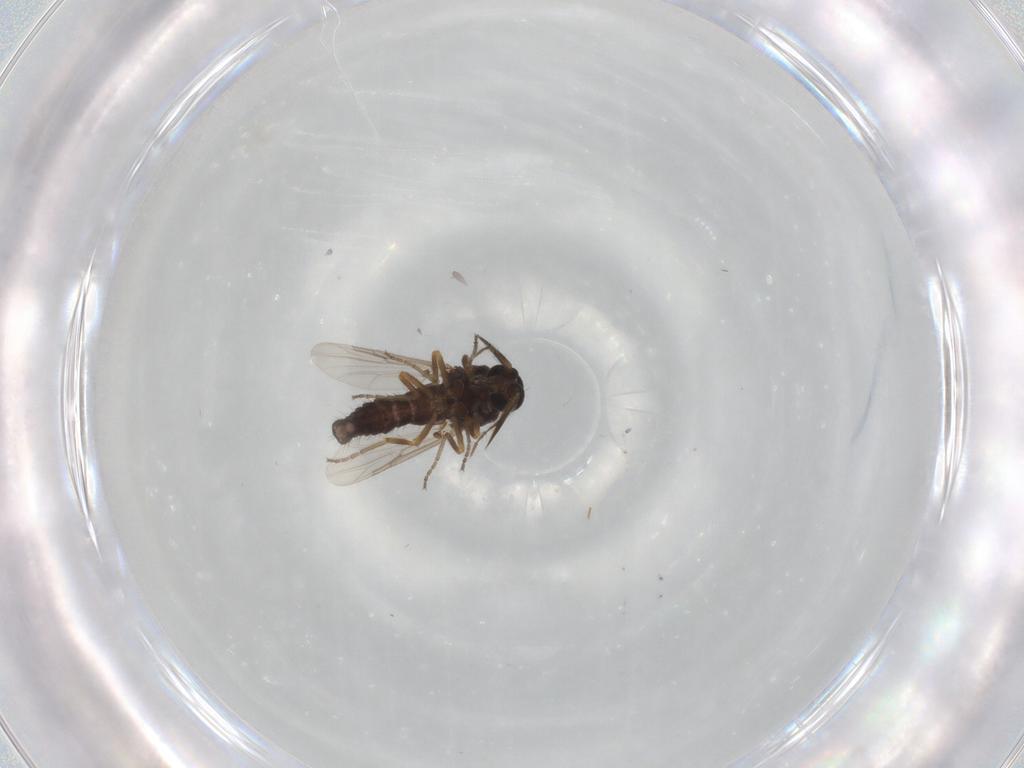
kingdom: Animalia
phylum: Arthropoda
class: Insecta
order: Diptera
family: Ceratopogonidae
